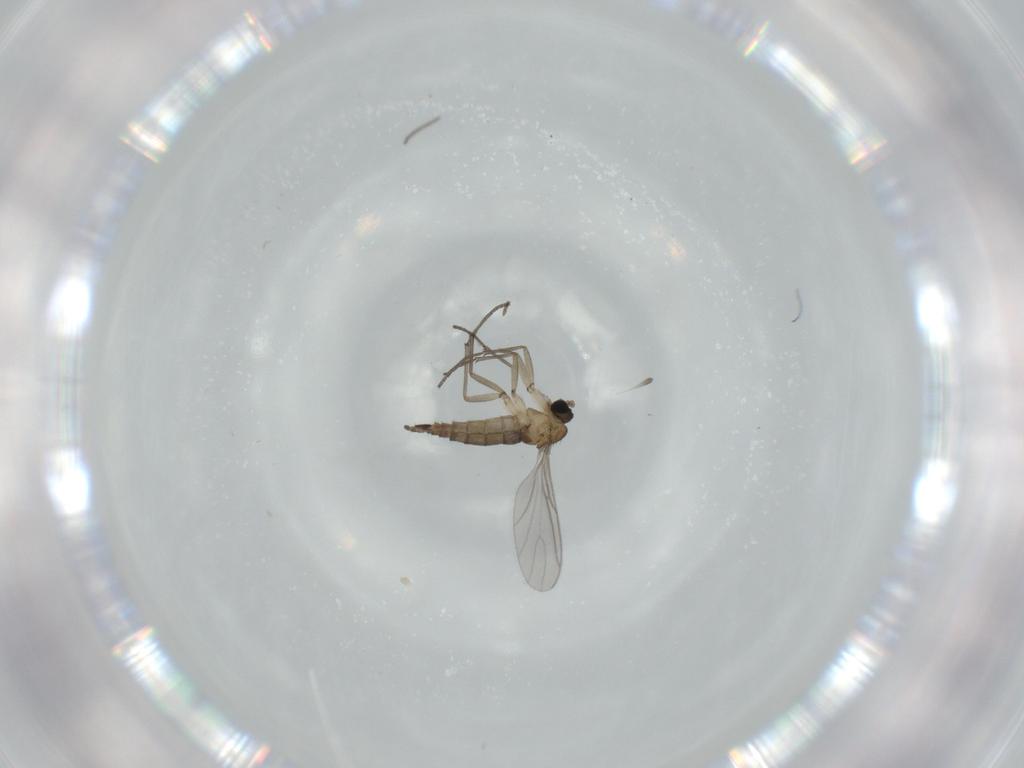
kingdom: Animalia
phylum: Arthropoda
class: Insecta
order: Diptera
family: Sciaridae
